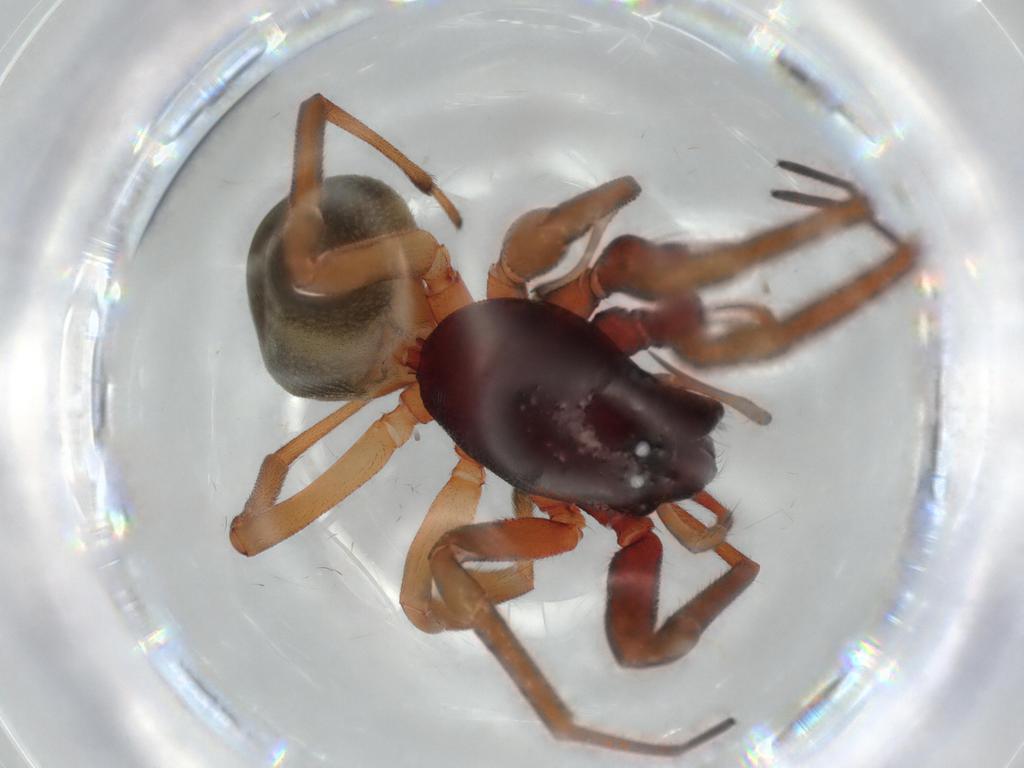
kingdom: Animalia
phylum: Arthropoda
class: Arachnida
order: Araneae
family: Trachelidae
